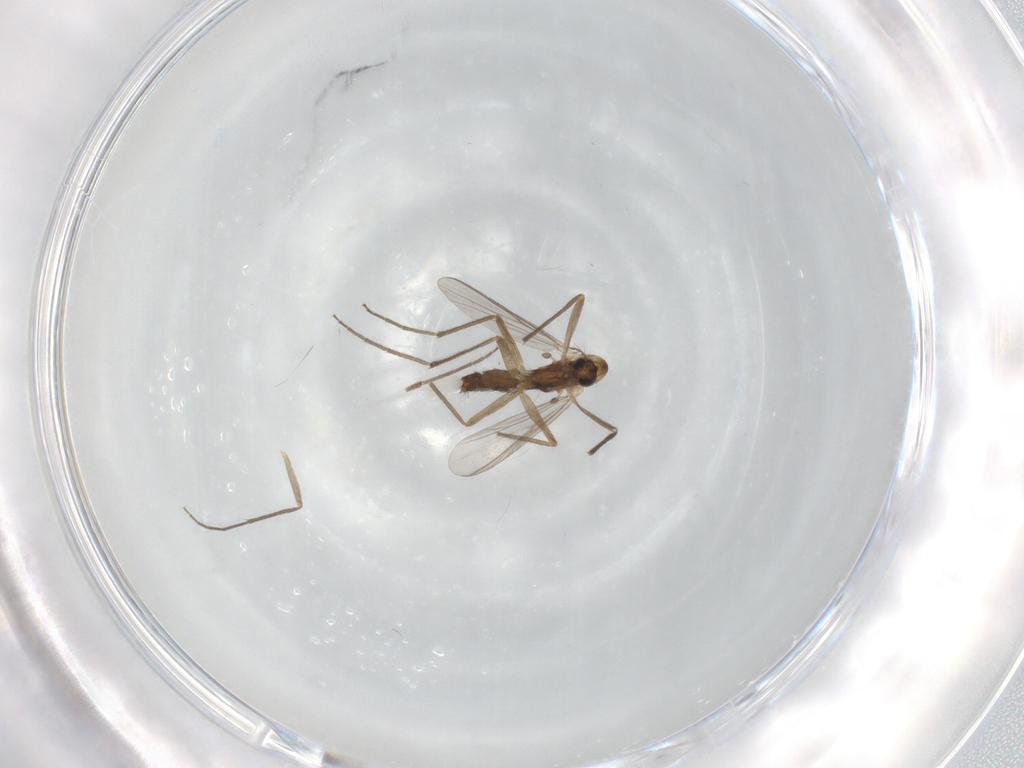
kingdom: Animalia
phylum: Arthropoda
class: Insecta
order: Diptera
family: Chironomidae
